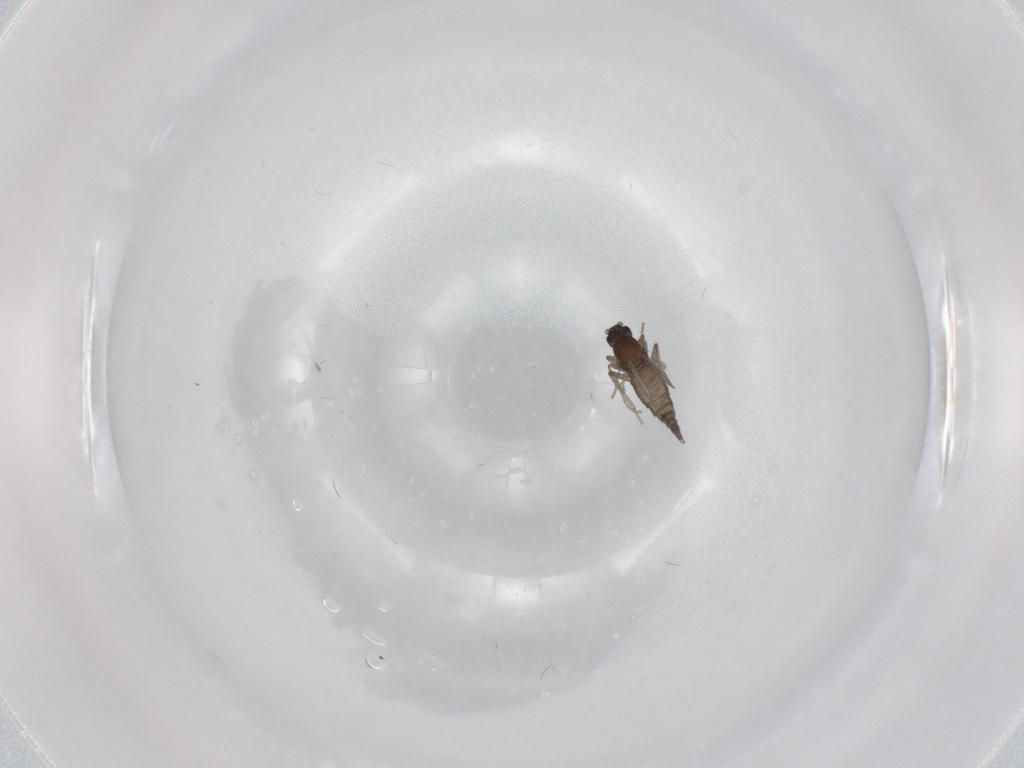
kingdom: Animalia
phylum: Arthropoda
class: Insecta
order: Diptera
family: Cecidomyiidae
